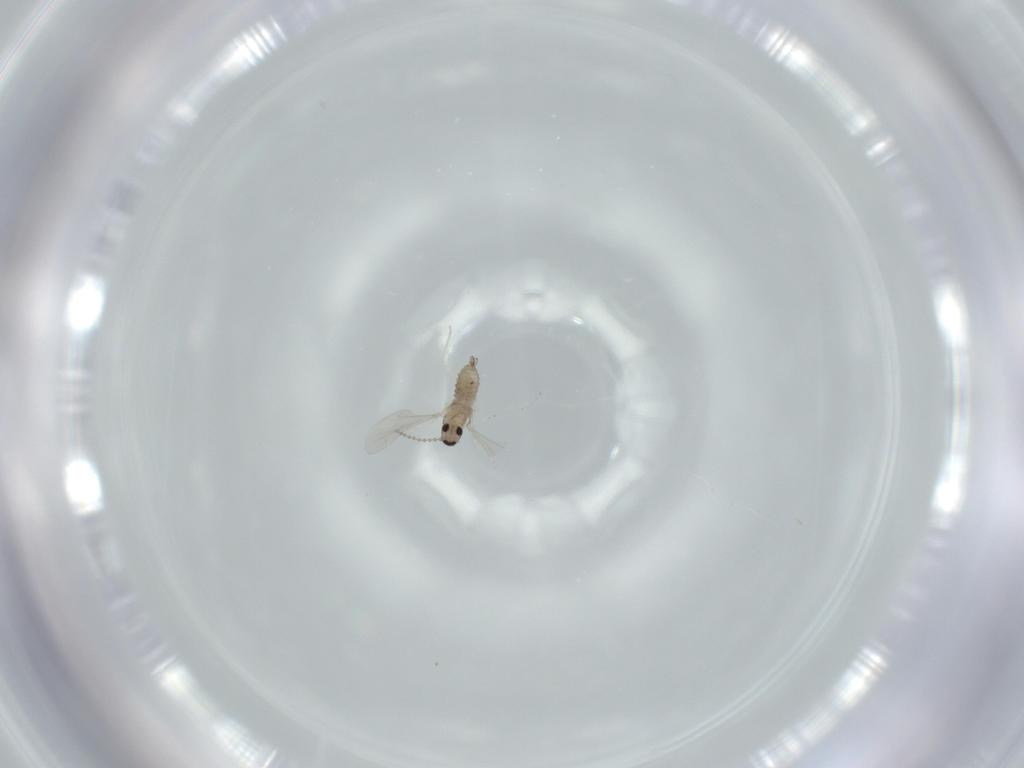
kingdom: Animalia
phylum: Arthropoda
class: Insecta
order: Diptera
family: Cecidomyiidae
